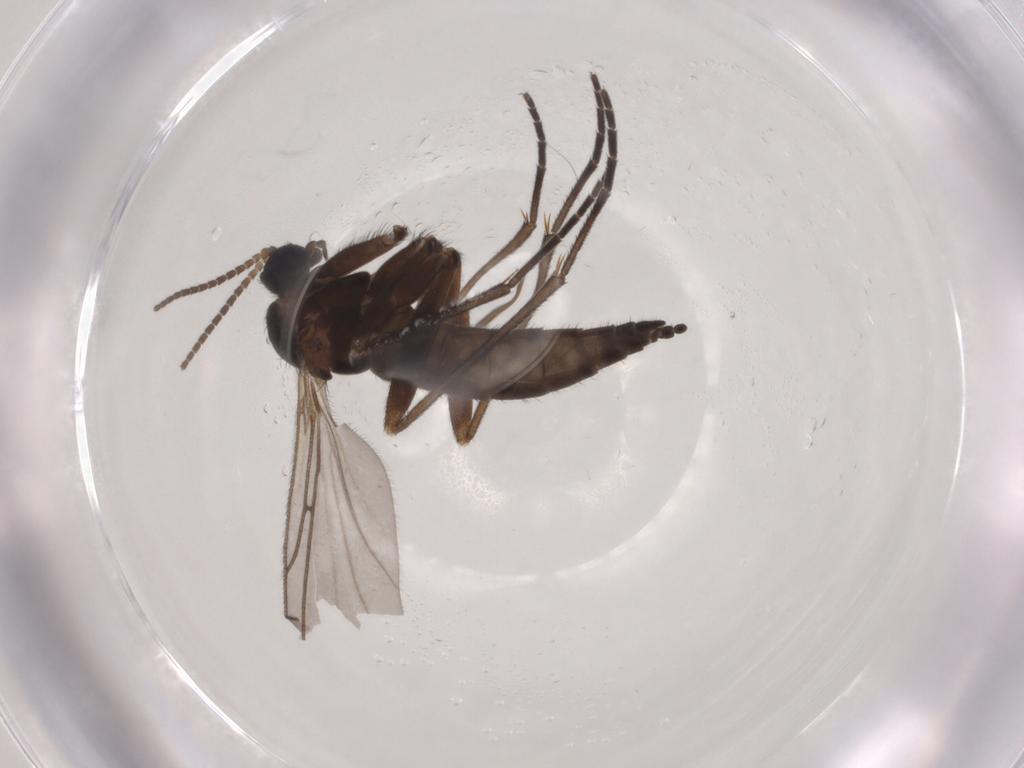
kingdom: Animalia
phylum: Arthropoda
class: Insecta
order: Diptera
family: Sciaridae
